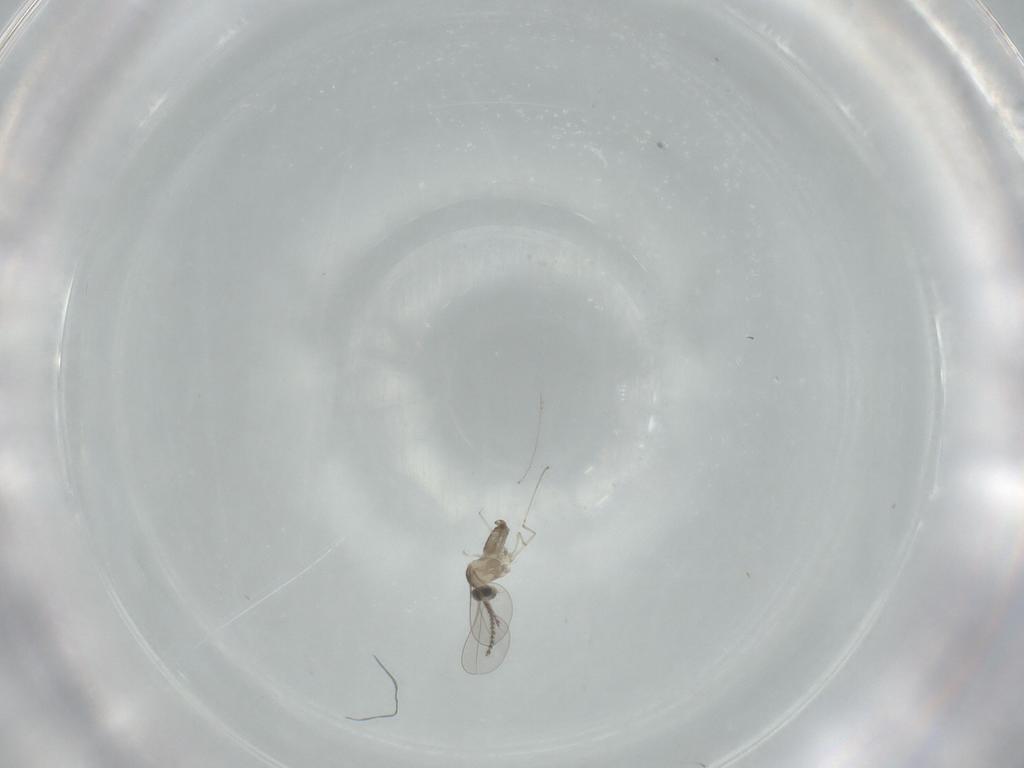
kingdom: Animalia
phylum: Arthropoda
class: Insecta
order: Diptera
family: Cecidomyiidae
